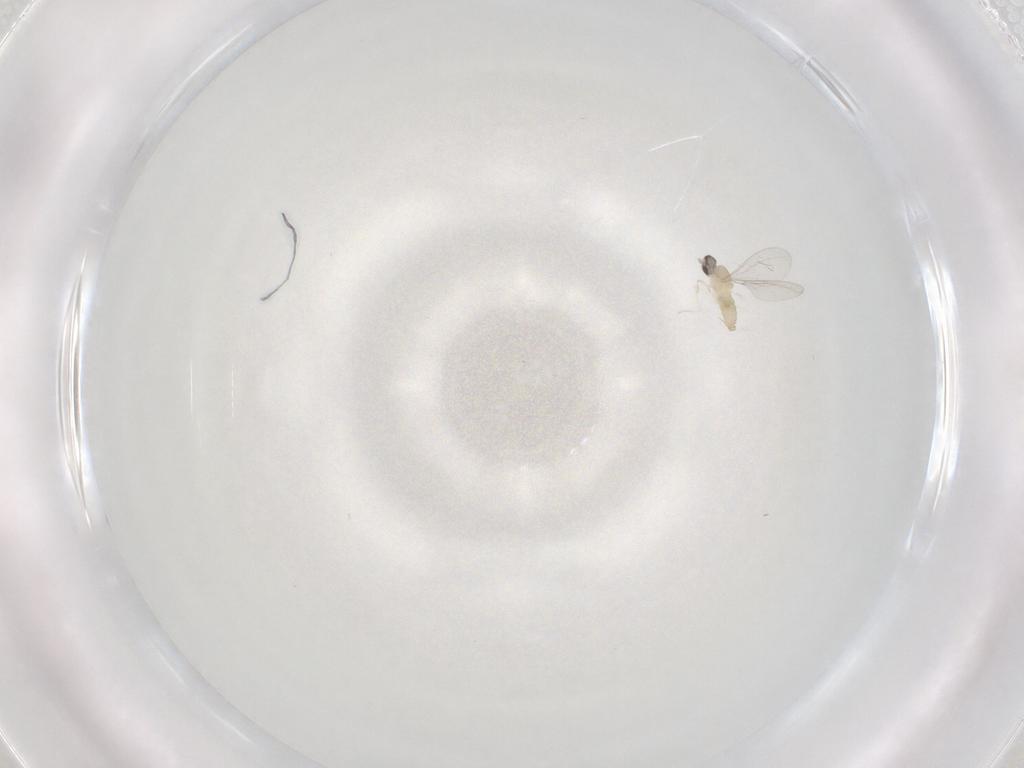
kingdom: Animalia
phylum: Arthropoda
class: Insecta
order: Diptera
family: Cecidomyiidae
